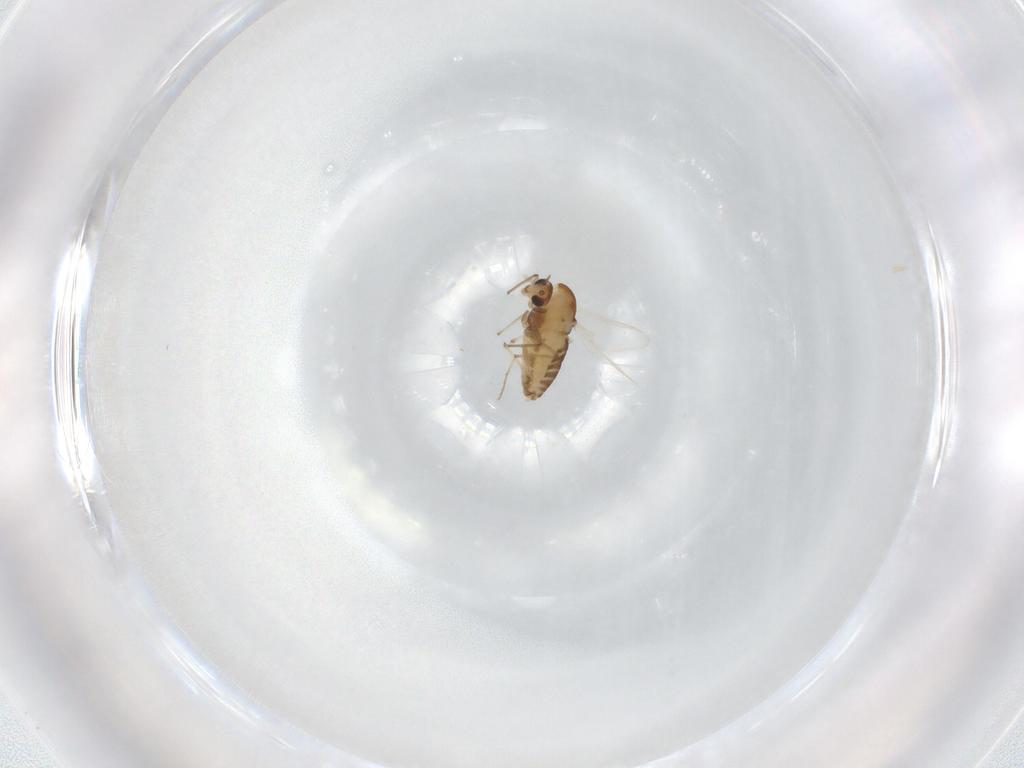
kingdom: Animalia
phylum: Arthropoda
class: Insecta
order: Diptera
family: Chironomidae
